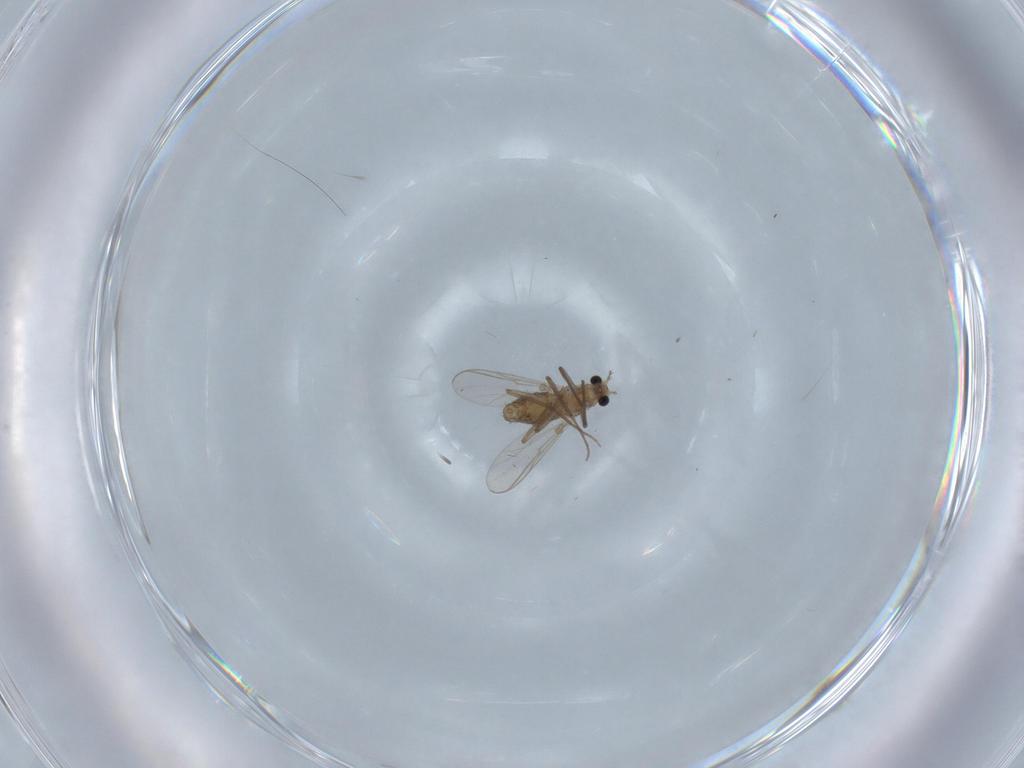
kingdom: Animalia
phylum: Arthropoda
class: Insecta
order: Diptera
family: Chironomidae
